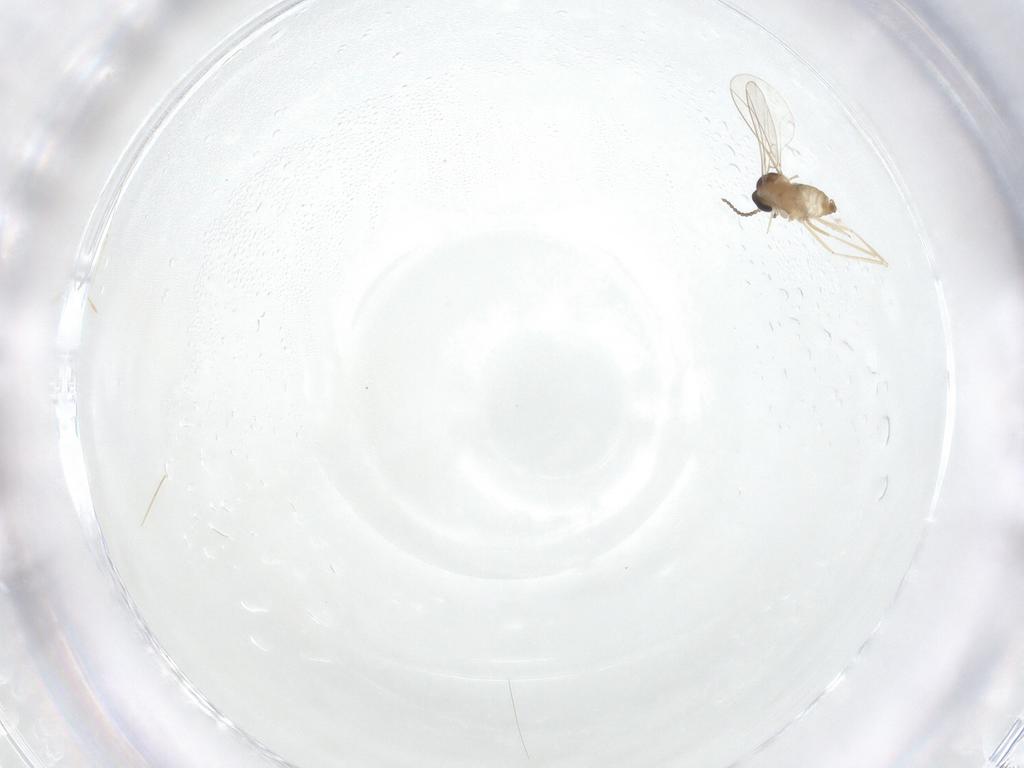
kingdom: Animalia
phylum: Arthropoda
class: Insecta
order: Diptera
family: Cecidomyiidae
